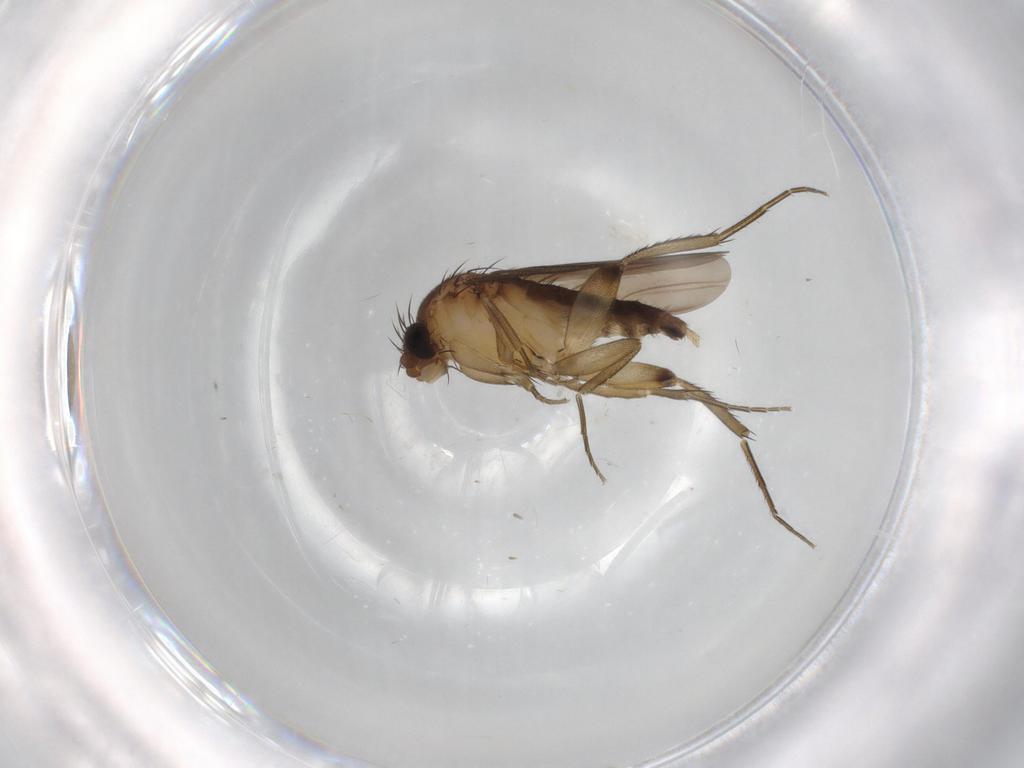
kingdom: Animalia
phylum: Arthropoda
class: Insecta
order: Diptera
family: Phoridae
